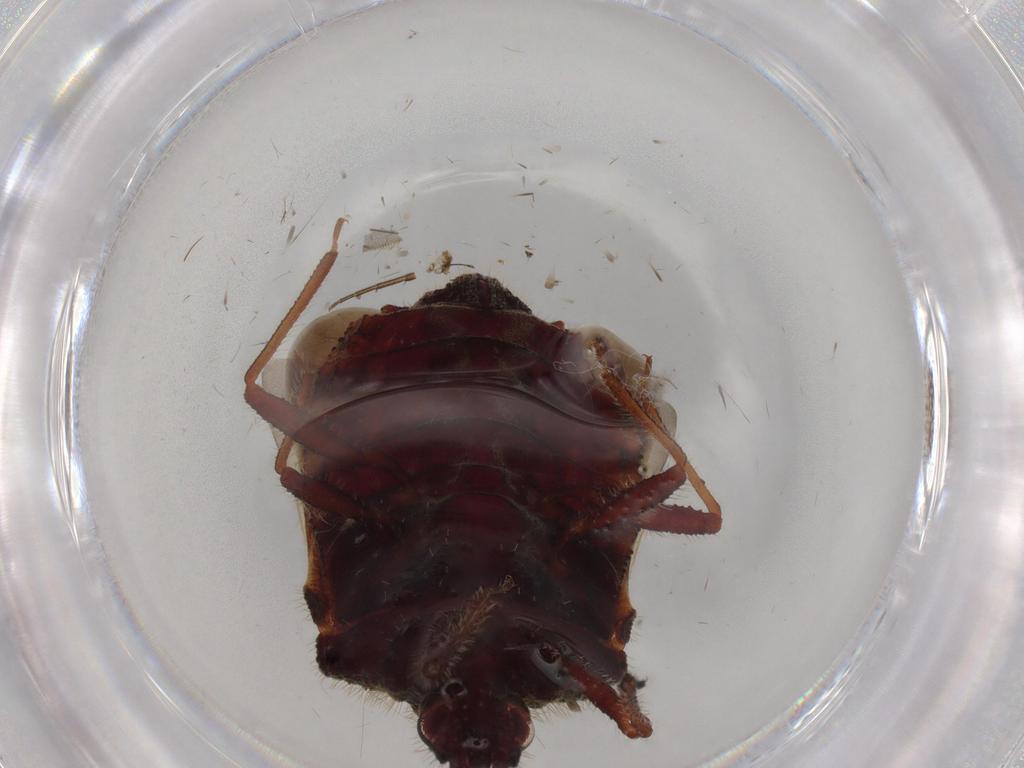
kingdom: Animalia
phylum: Arthropoda
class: Insecta
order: Hemiptera
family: Aradidae
